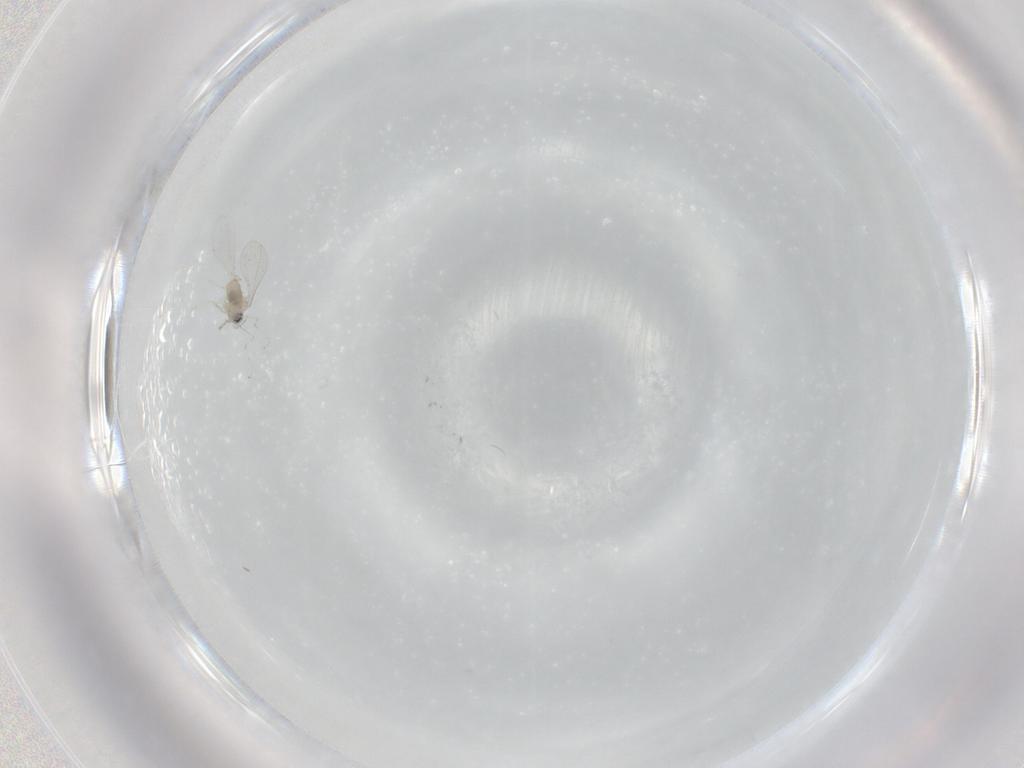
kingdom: Animalia
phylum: Arthropoda
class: Insecta
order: Diptera
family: Cecidomyiidae
